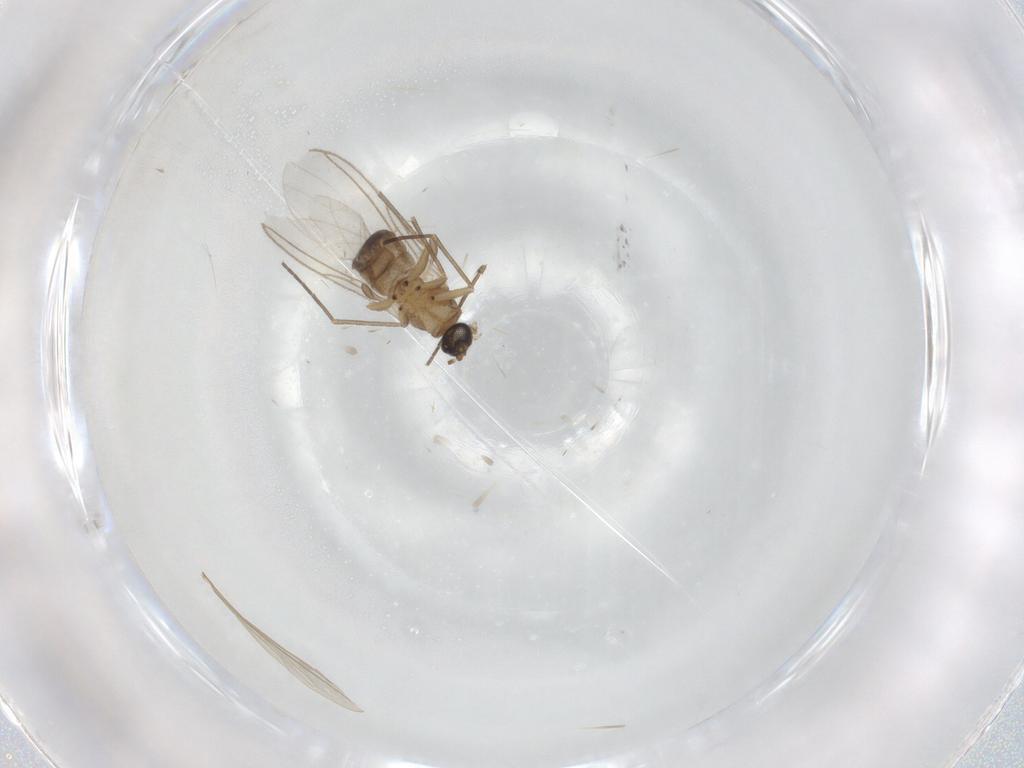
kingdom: Animalia
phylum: Arthropoda
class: Insecta
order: Diptera
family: Sciaridae
